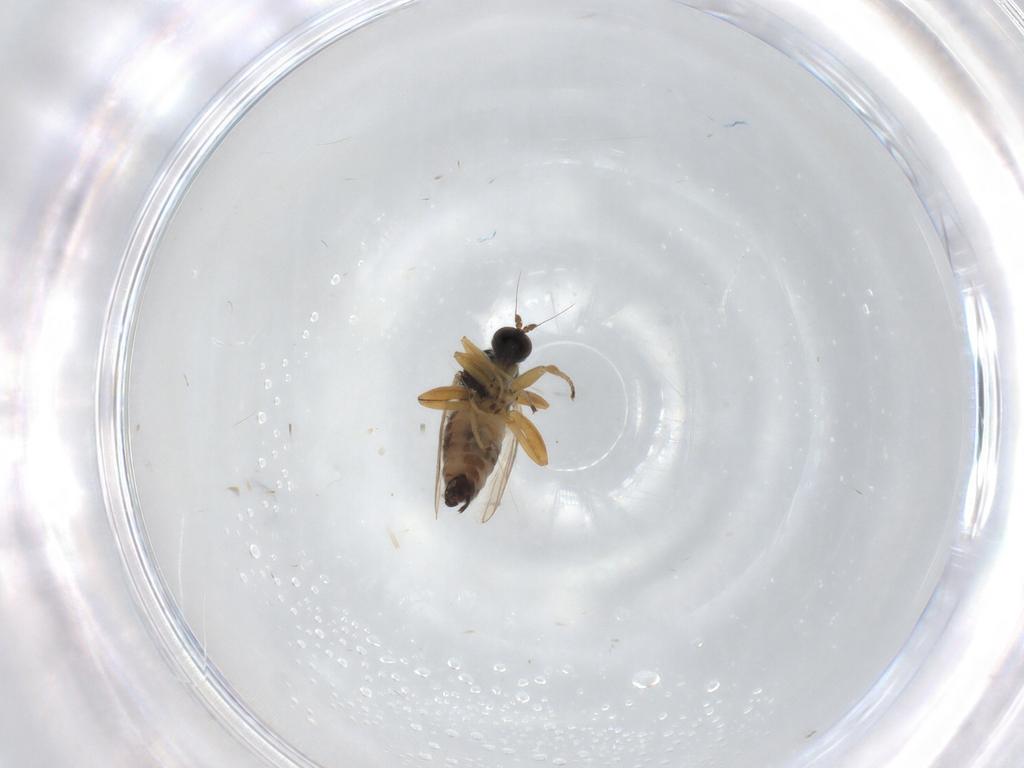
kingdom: Animalia
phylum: Arthropoda
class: Insecta
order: Diptera
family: Hybotidae
